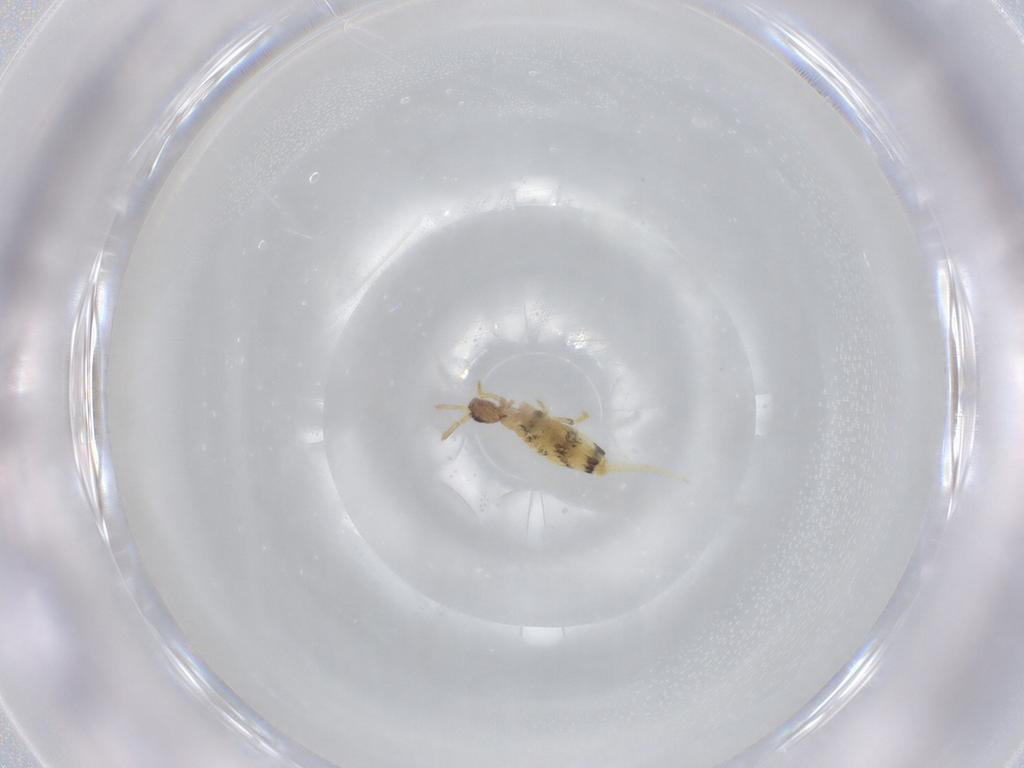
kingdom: Animalia
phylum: Arthropoda
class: Collembola
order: Entomobryomorpha
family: Entomobryidae
